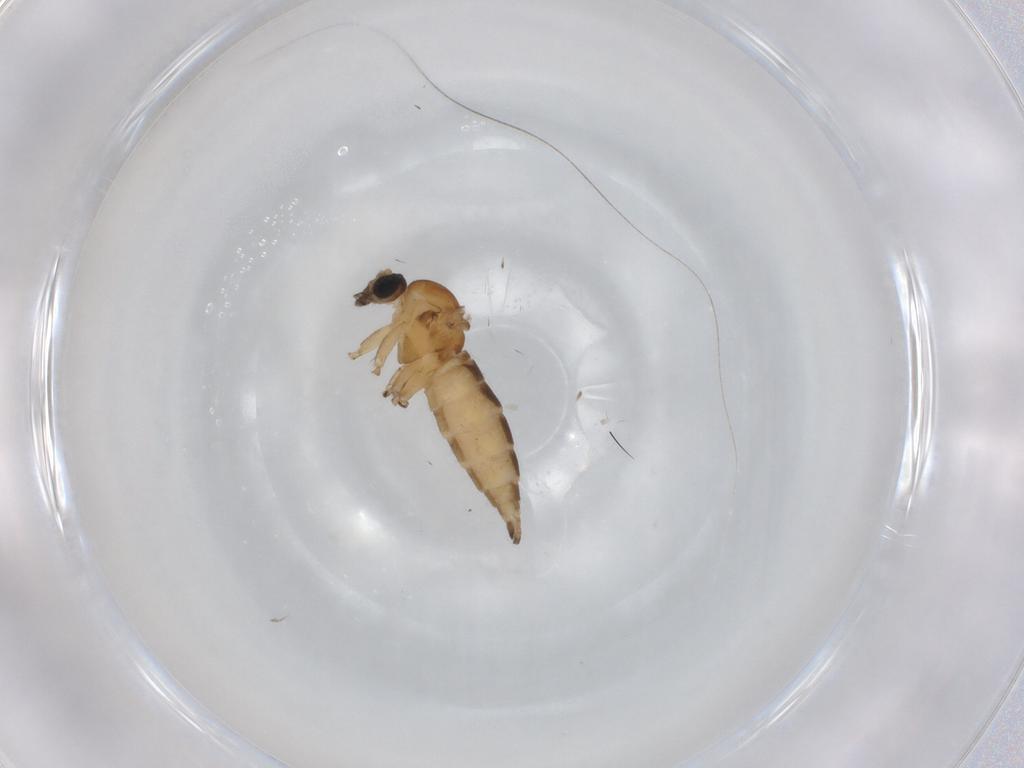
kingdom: Animalia
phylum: Arthropoda
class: Insecta
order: Diptera
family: Sciaridae
